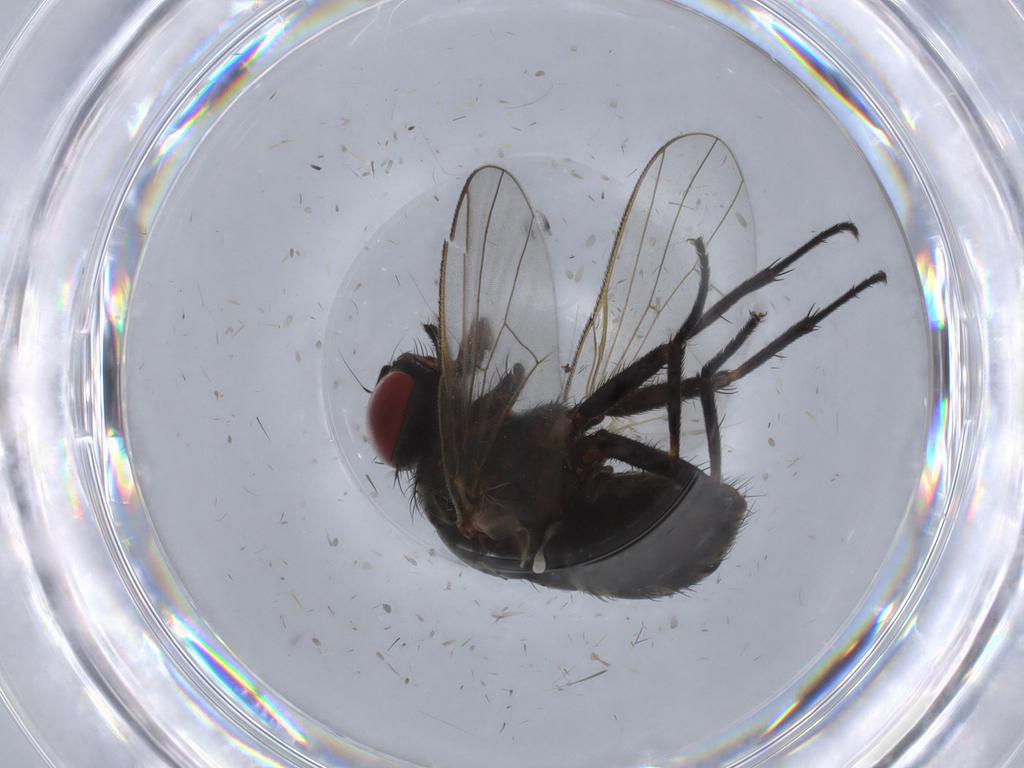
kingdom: Animalia
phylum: Arthropoda
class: Insecta
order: Diptera
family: Muscidae
